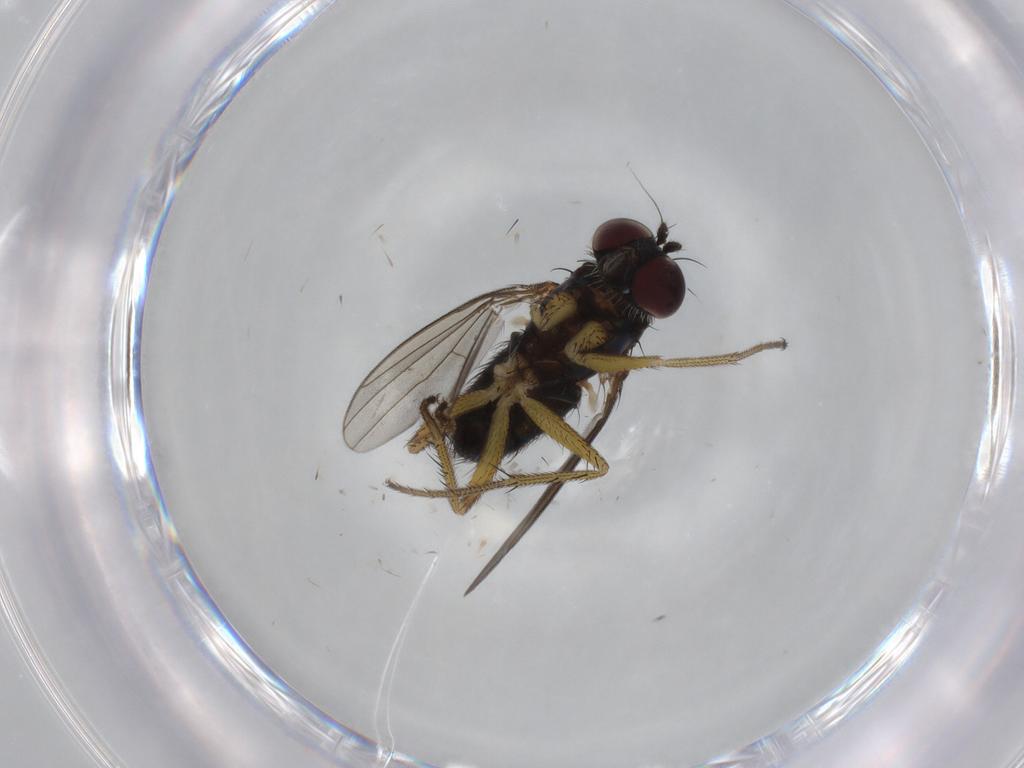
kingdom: Animalia
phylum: Arthropoda
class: Insecta
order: Diptera
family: Dolichopodidae
